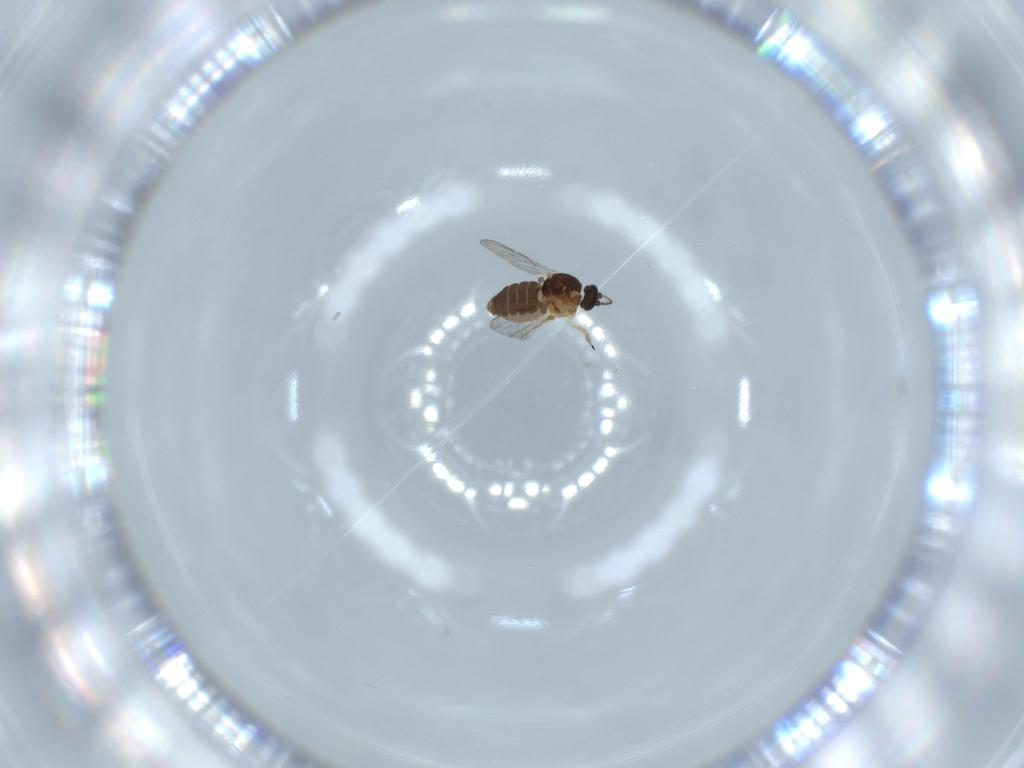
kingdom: Animalia
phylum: Arthropoda
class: Insecta
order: Diptera
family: Ceratopogonidae
